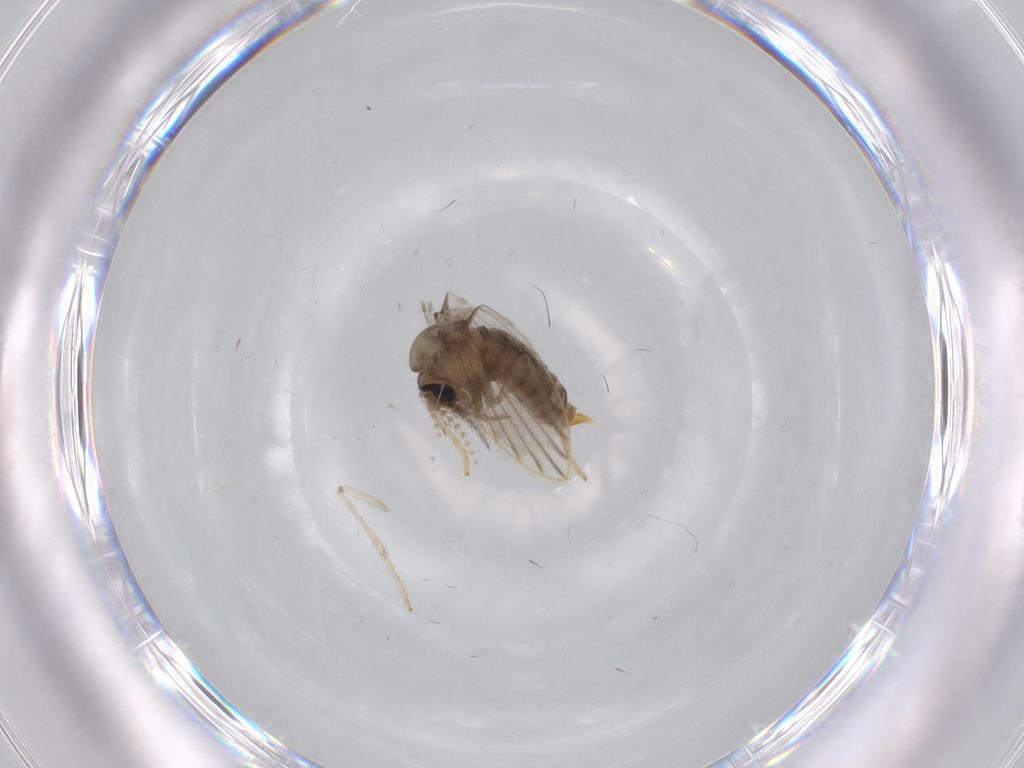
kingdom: Animalia
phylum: Arthropoda
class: Insecta
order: Diptera
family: Psychodidae
